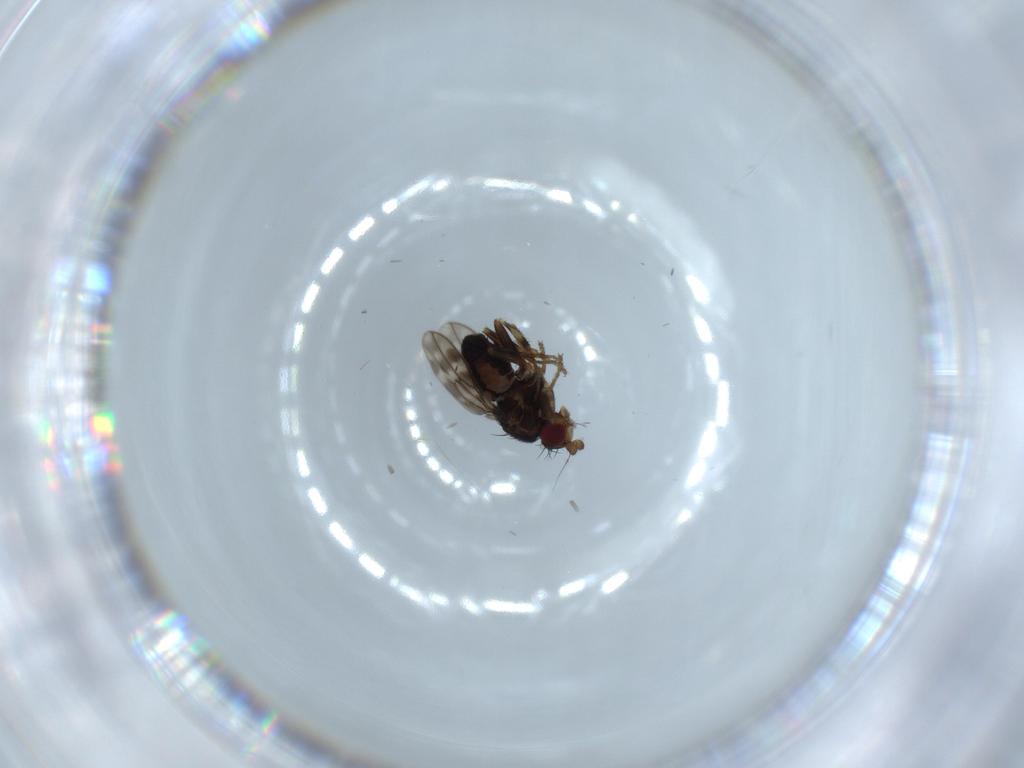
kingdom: Animalia
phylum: Arthropoda
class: Insecta
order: Diptera
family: Sphaeroceridae
